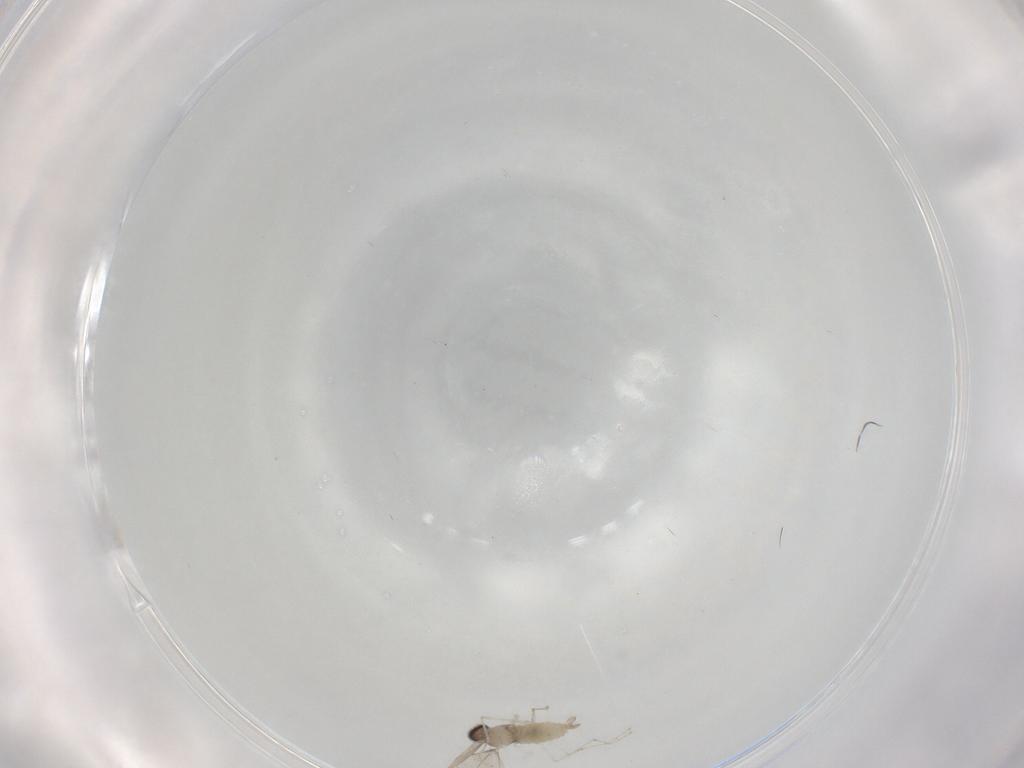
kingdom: Animalia
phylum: Arthropoda
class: Insecta
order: Diptera
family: Cecidomyiidae
